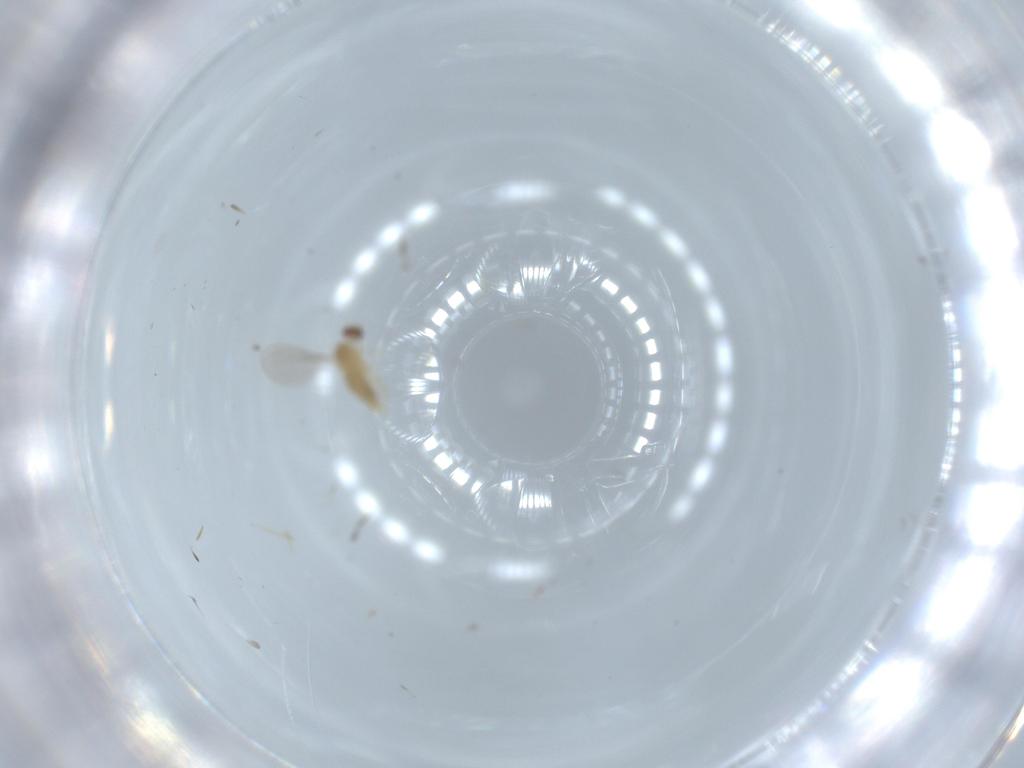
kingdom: Animalia
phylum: Arthropoda
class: Insecta
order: Diptera
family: Cecidomyiidae
